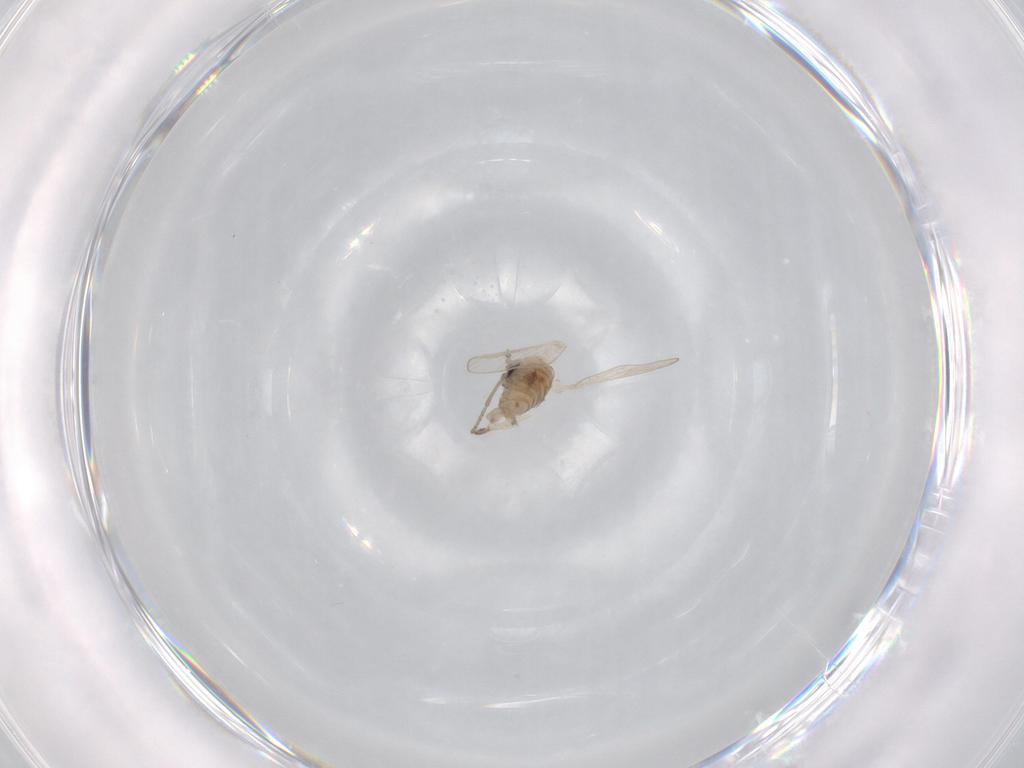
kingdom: Animalia
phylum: Arthropoda
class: Insecta
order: Diptera
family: Psychodidae
